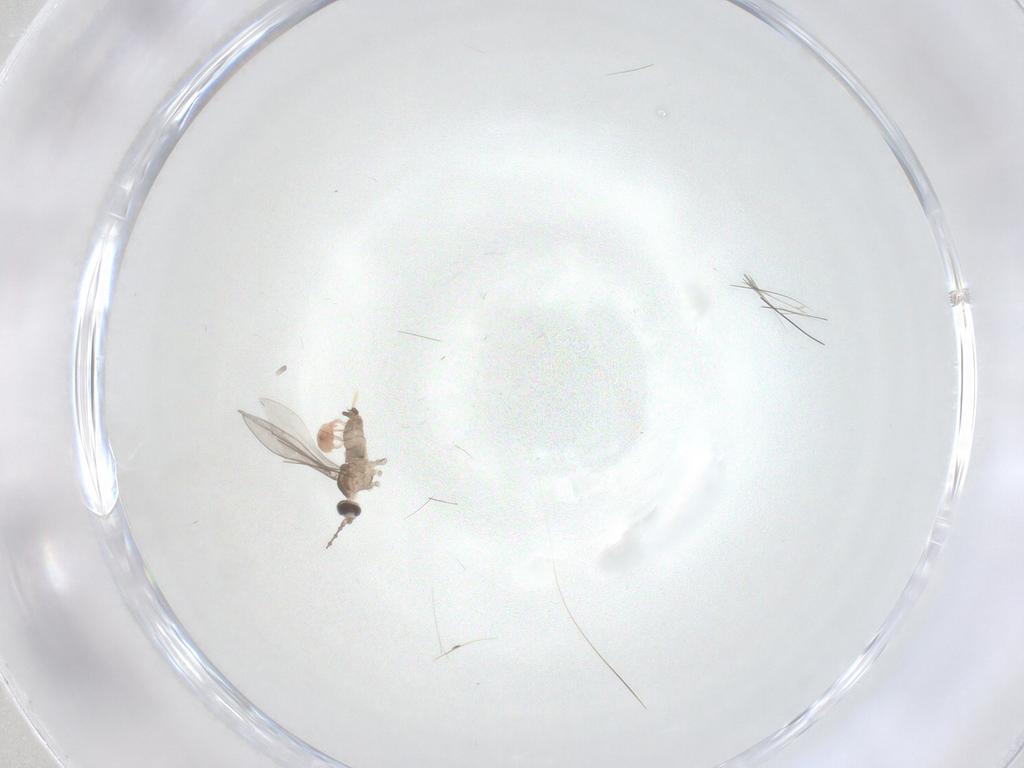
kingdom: Animalia
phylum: Arthropoda
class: Insecta
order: Diptera
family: Cecidomyiidae
